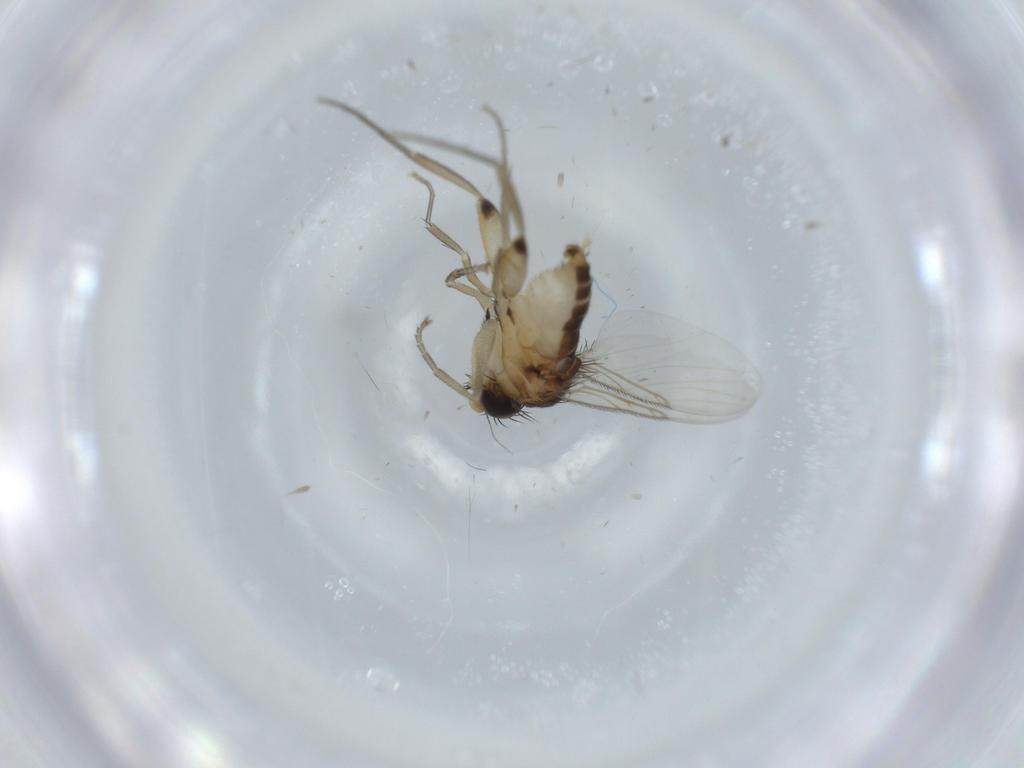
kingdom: Animalia
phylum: Arthropoda
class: Insecta
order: Diptera
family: Phoridae
